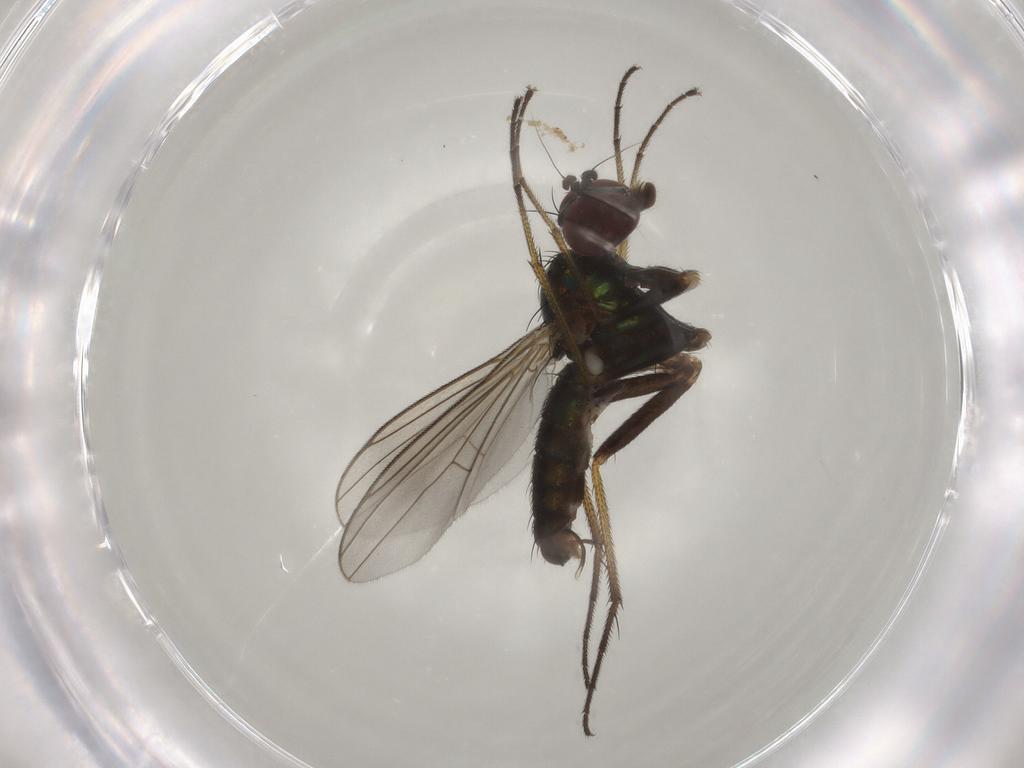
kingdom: Animalia
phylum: Arthropoda
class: Insecta
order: Diptera
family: Dolichopodidae
